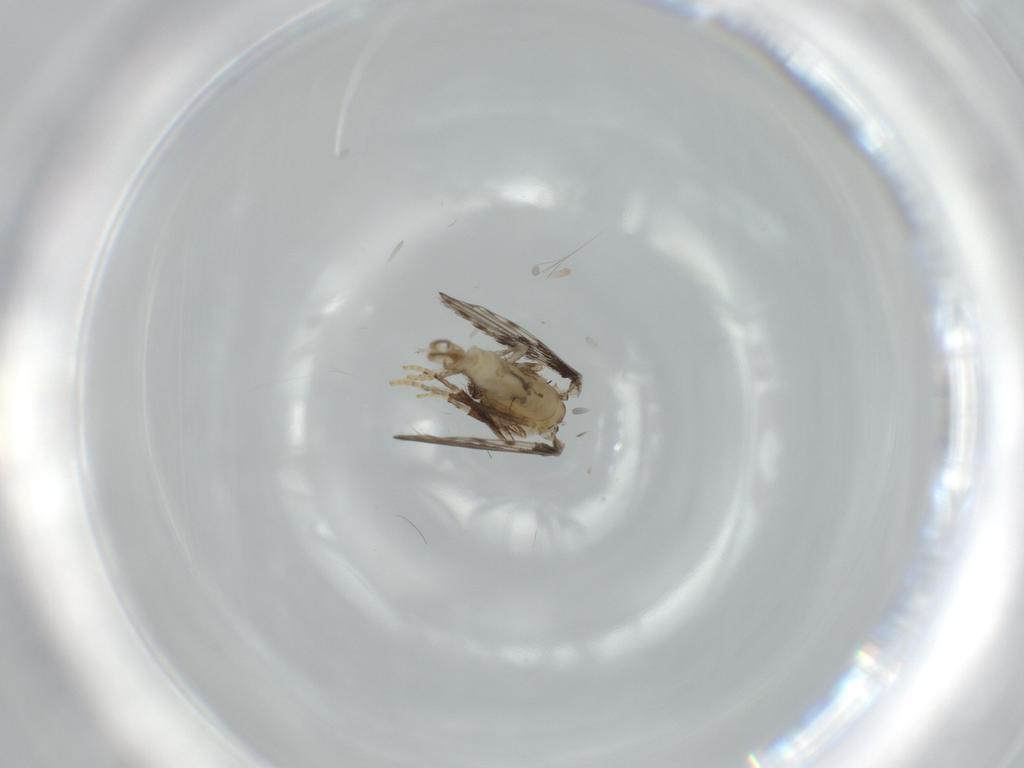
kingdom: Animalia
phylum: Arthropoda
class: Insecta
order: Diptera
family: Psychodidae
